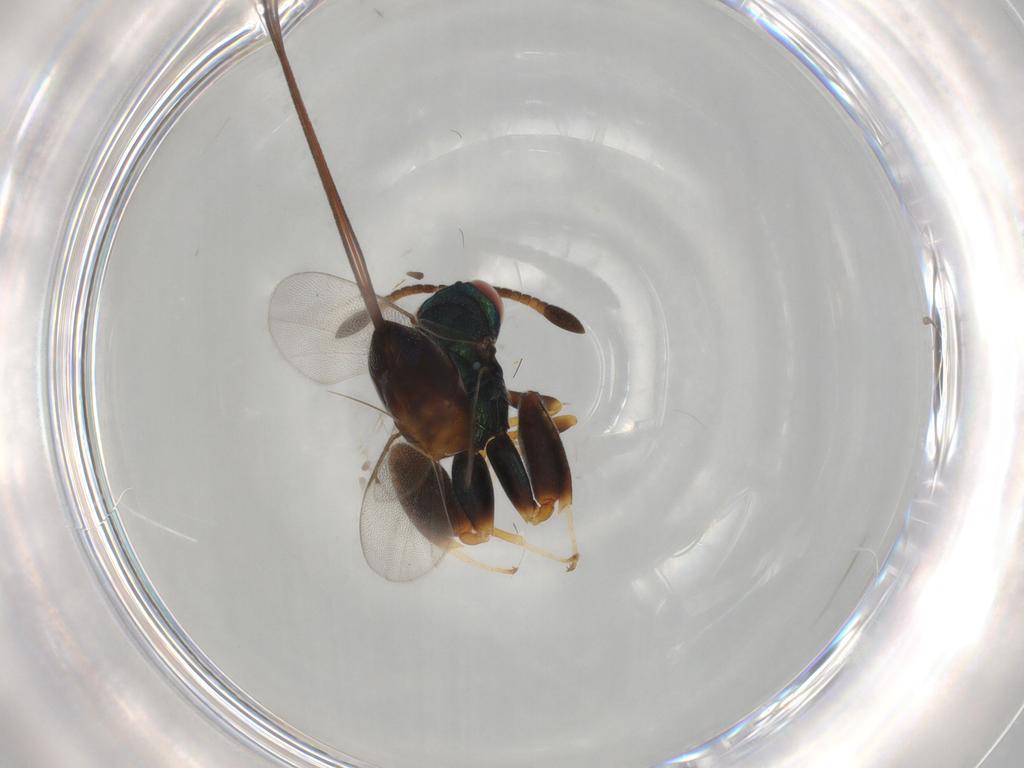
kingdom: Animalia
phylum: Arthropoda
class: Insecta
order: Hymenoptera
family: Torymidae
